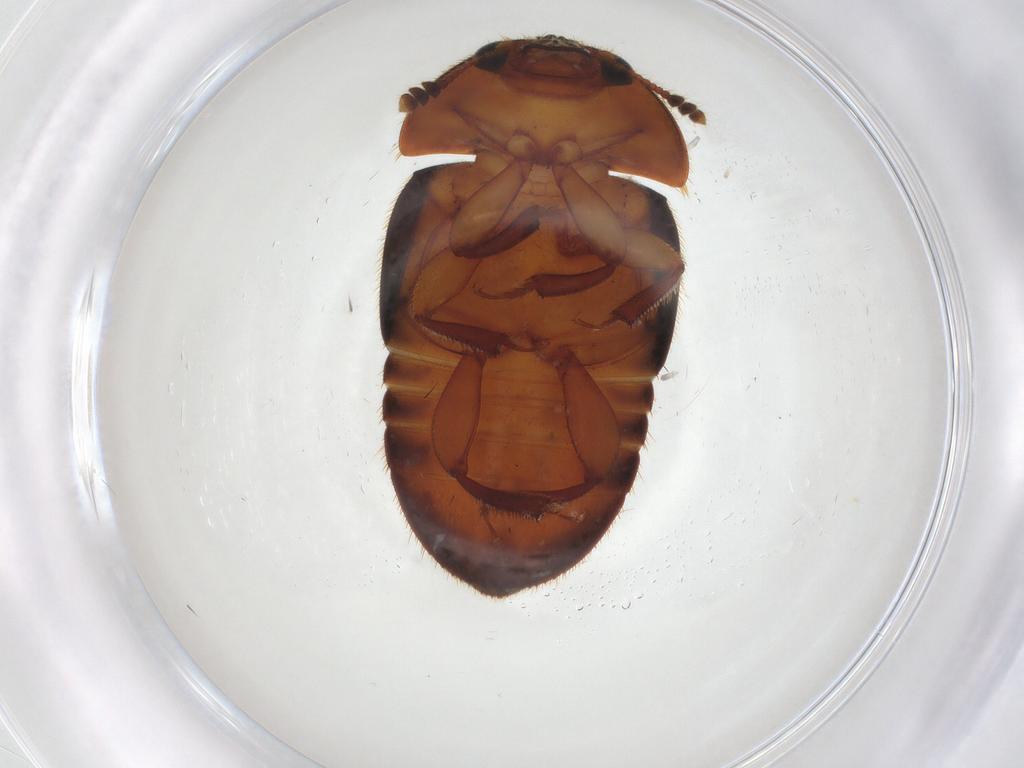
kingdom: Animalia
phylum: Arthropoda
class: Insecta
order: Coleoptera
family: Nitidulidae
